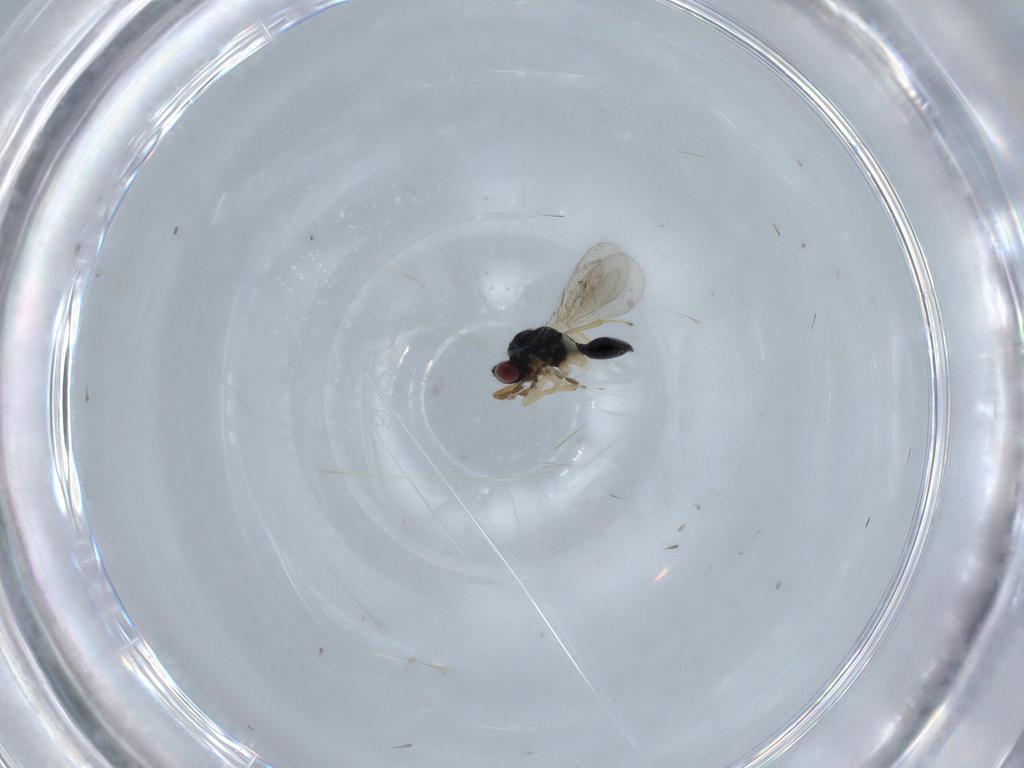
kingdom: Animalia
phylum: Arthropoda
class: Insecta
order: Hymenoptera
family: Eulophidae
